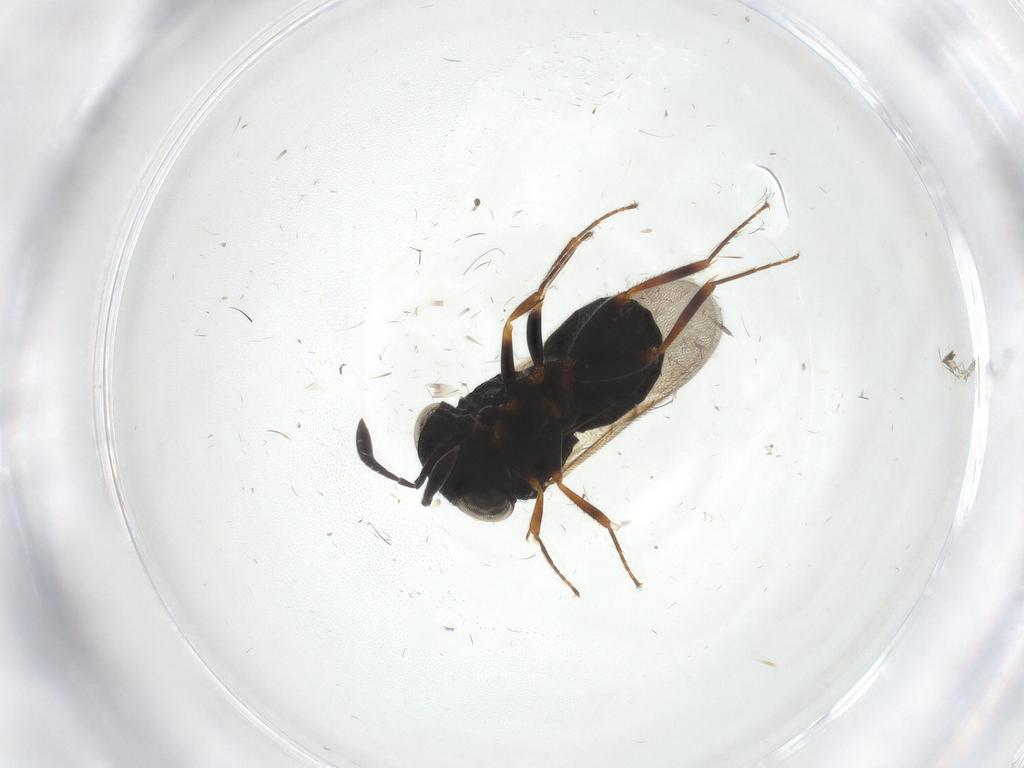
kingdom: Animalia
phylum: Arthropoda
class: Insecta
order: Hymenoptera
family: Scelionidae
